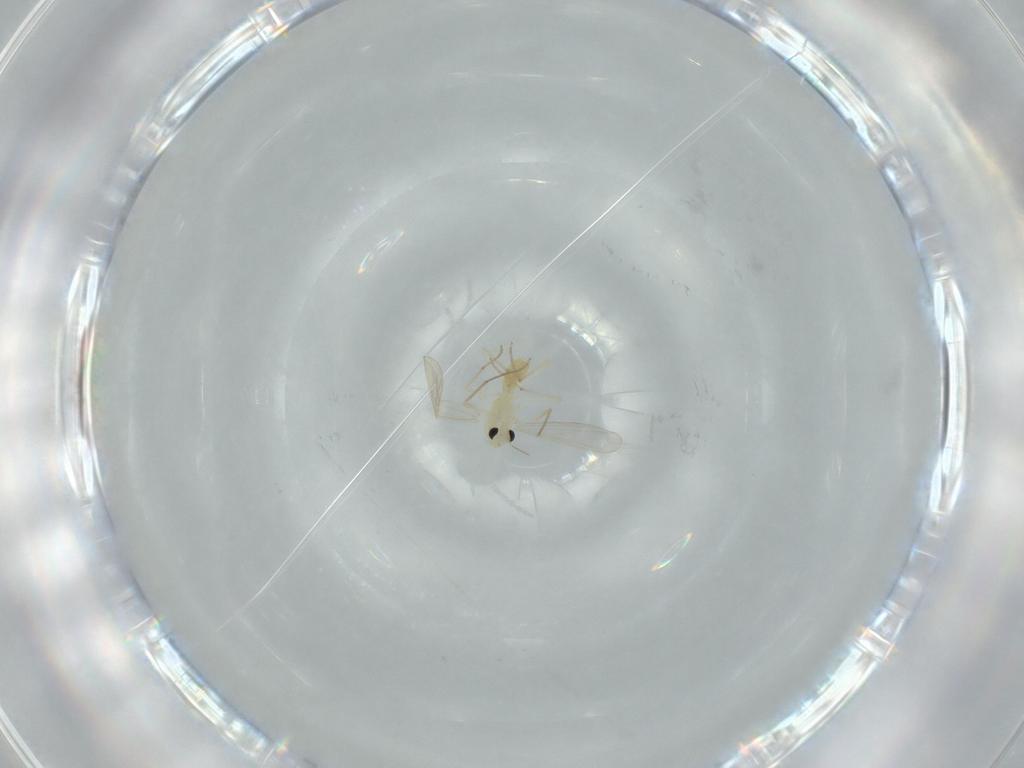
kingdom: Animalia
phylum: Arthropoda
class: Insecta
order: Diptera
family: Chironomidae
